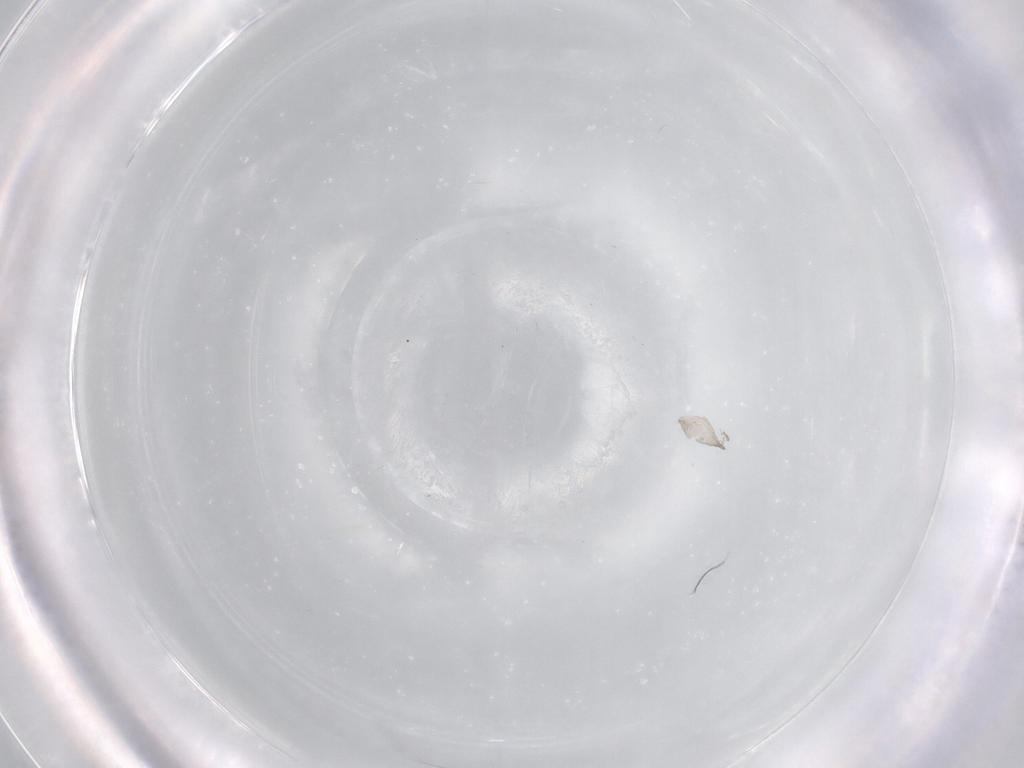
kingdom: Animalia
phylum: Arthropoda
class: Insecta
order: Diptera
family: Cecidomyiidae
